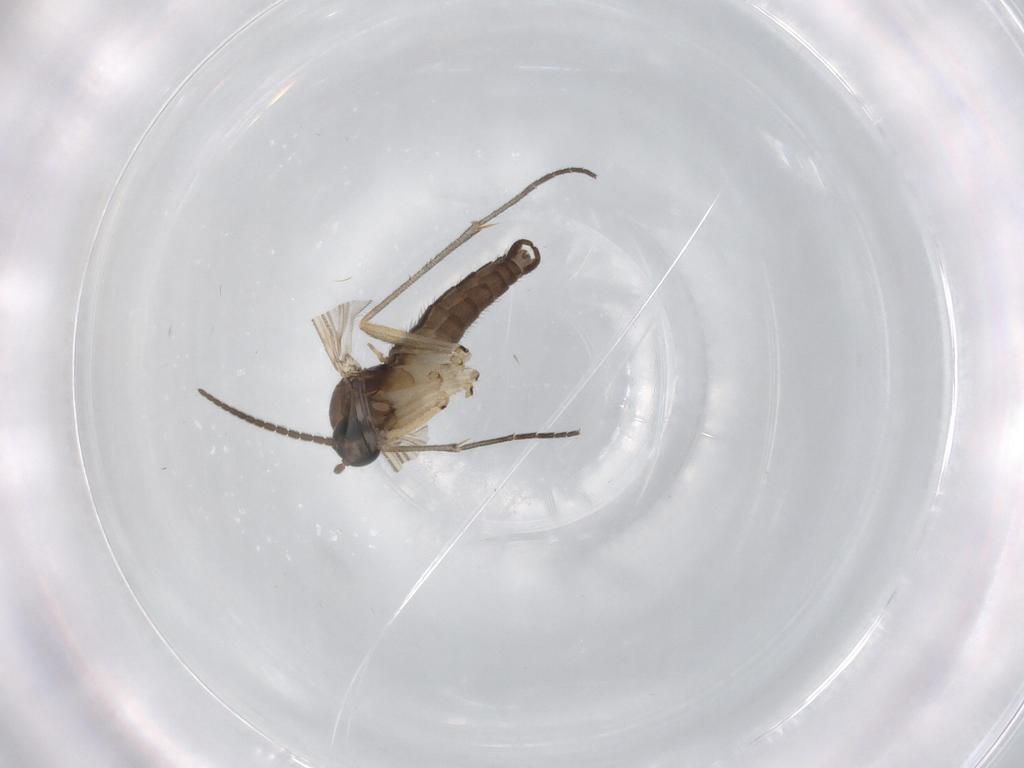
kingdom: Animalia
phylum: Arthropoda
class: Insecta
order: Diptera
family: Sciaridae
